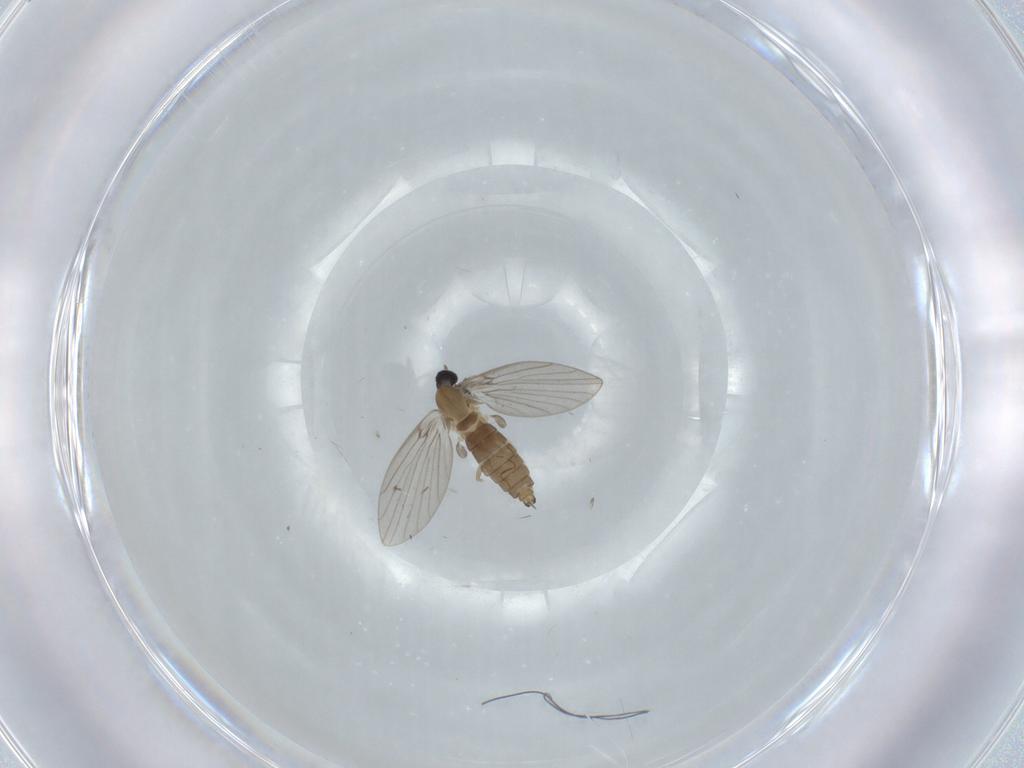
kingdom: Animalia
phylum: Arthropoda
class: Insecta
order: Diptera
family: Psychodidae
